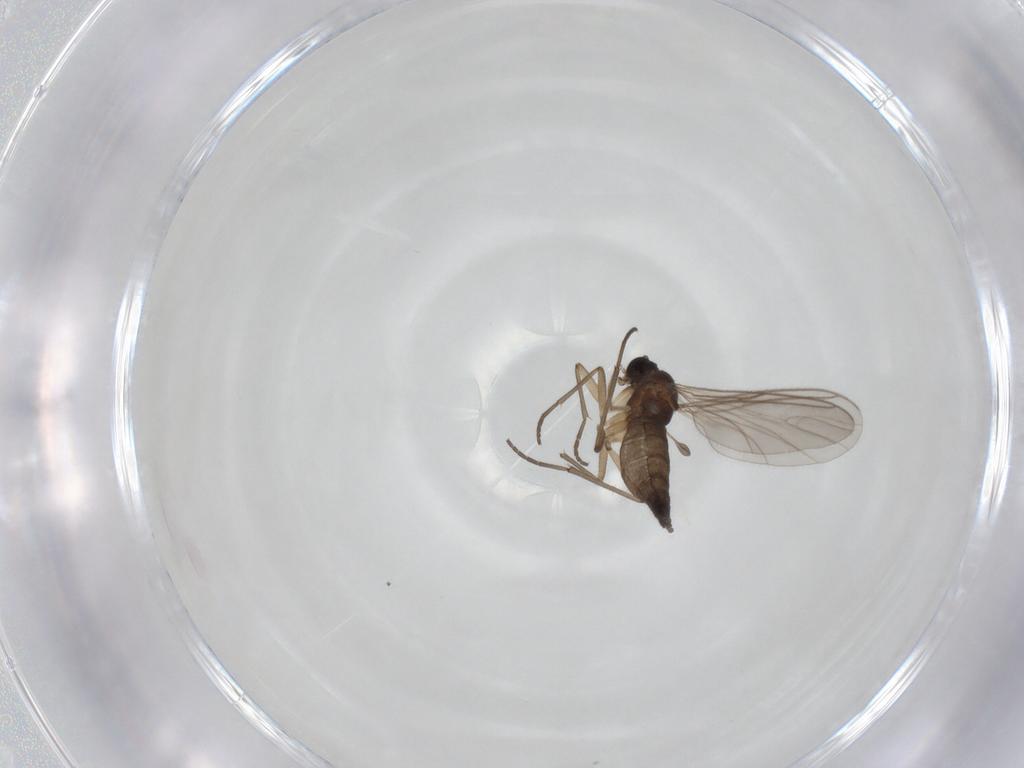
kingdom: Animalia
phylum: Arthropoda
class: Insecta
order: Diptera
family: Sciaridae
